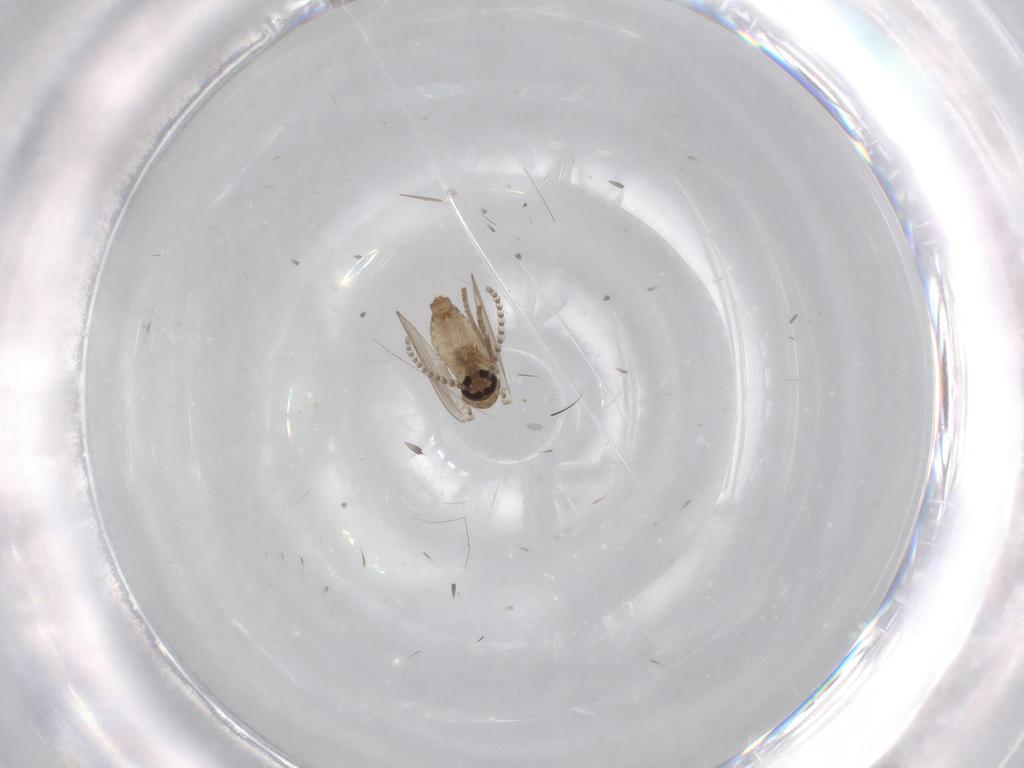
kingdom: Animalia
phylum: Arthropoda
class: Insecta
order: Diptera
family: Psychodidae
